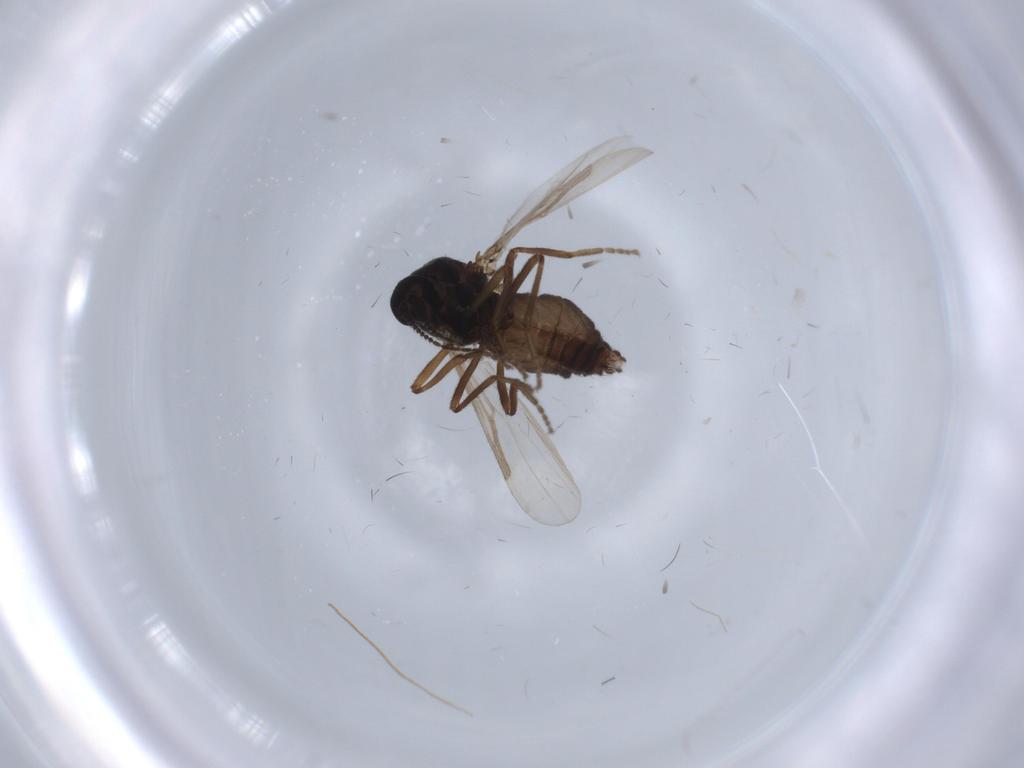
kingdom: Animalia
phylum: Arthropoda
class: Insecta
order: Diptera
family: Ceratopogonidae
